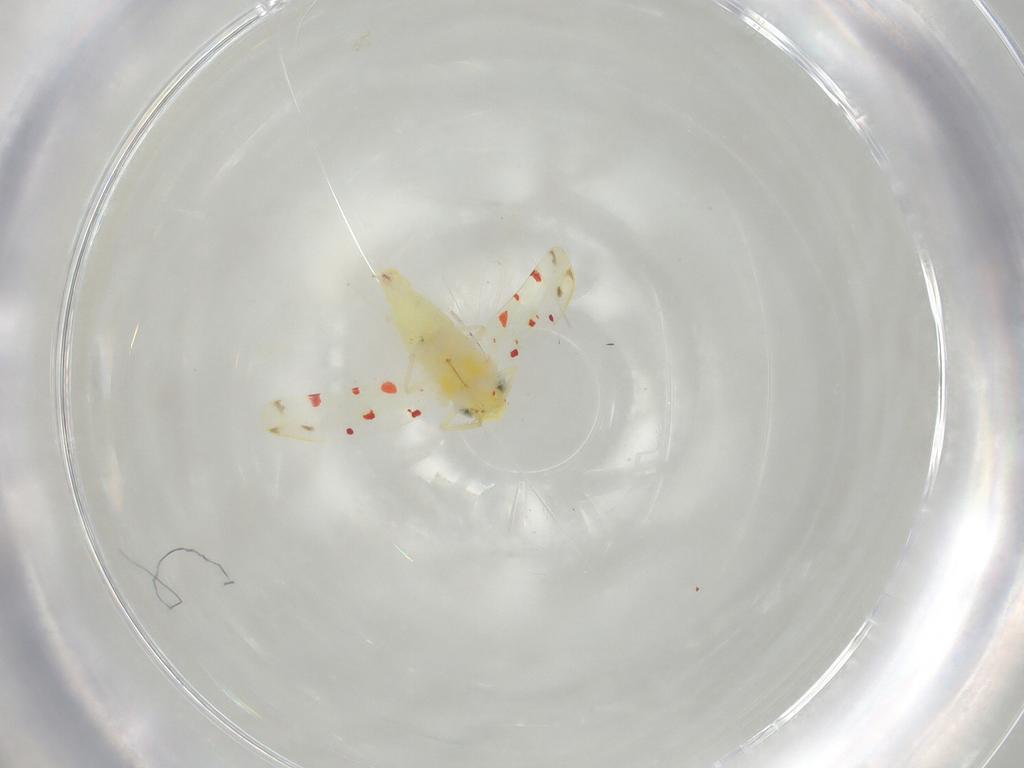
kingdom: Animalia
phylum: Arthropoda
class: Insecta
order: Hemiptera
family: Cicadellidae
